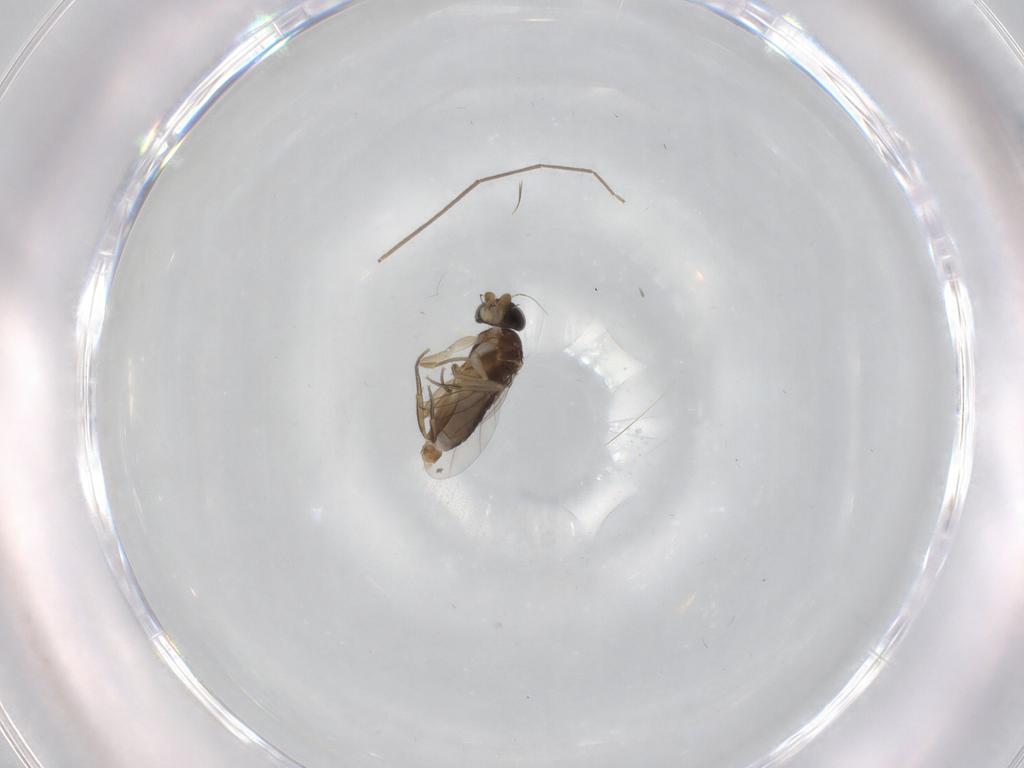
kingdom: Animalia
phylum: Arthropoda
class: Insecta
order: Diptera
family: Phoridae
